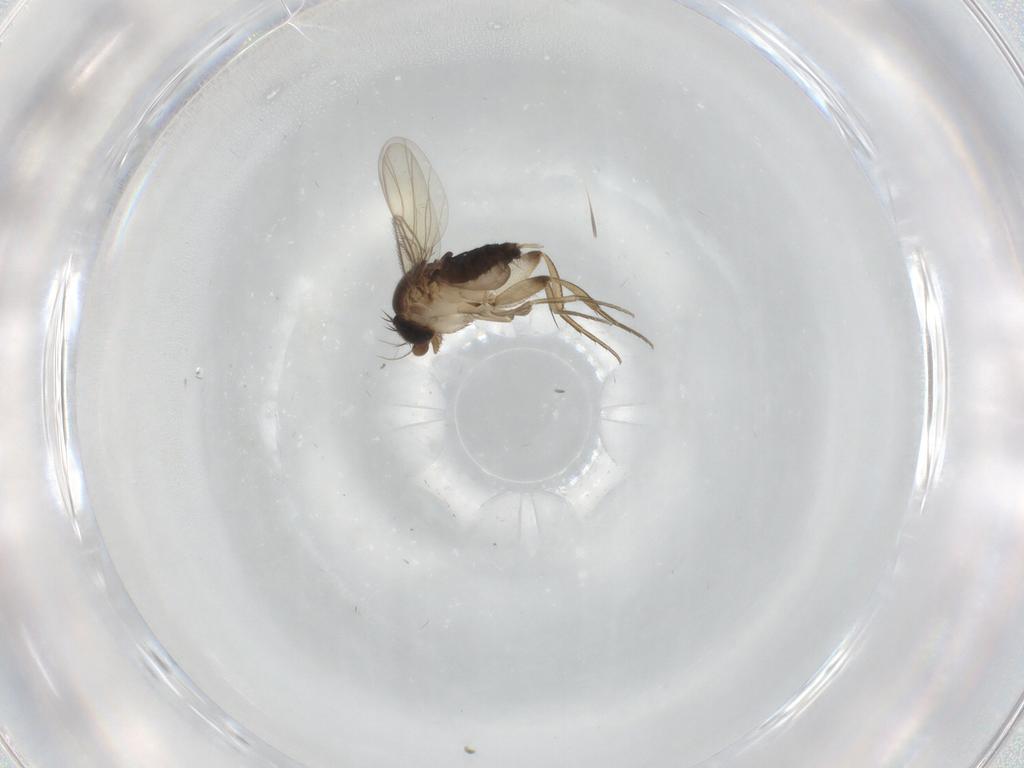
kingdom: Animalia
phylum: Arthropoda
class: Insecta
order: Diptera
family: Phoridae
